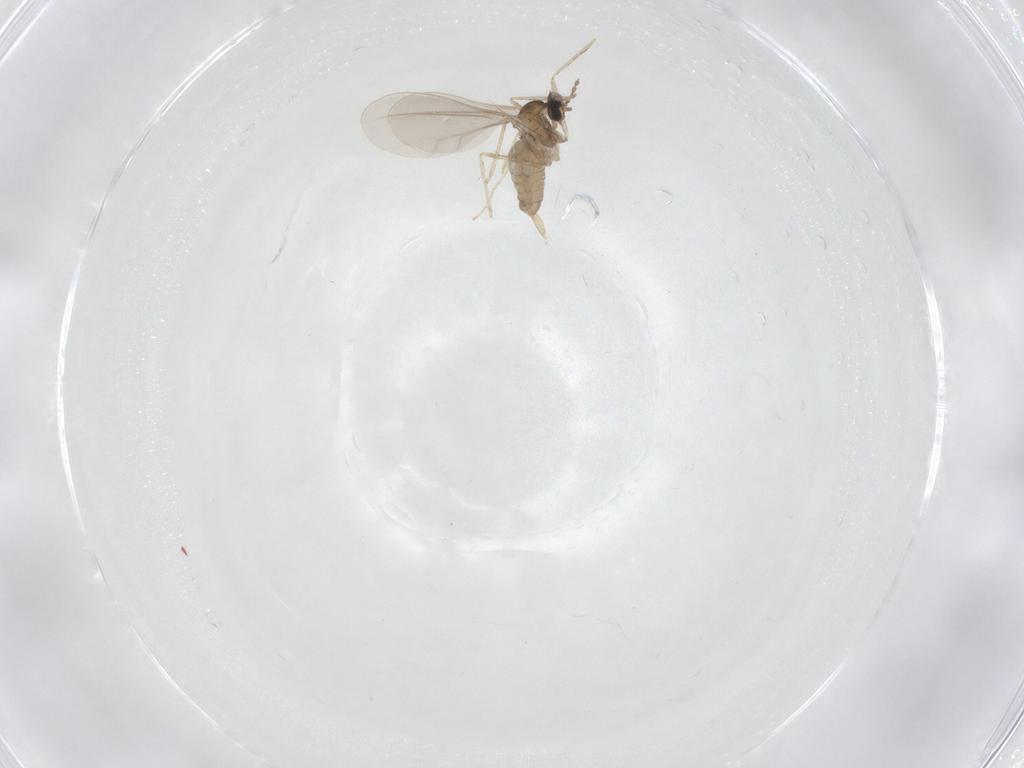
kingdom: Animalia
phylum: Arthropoda
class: Insecta
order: Diptera
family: Cecidomyiidae
